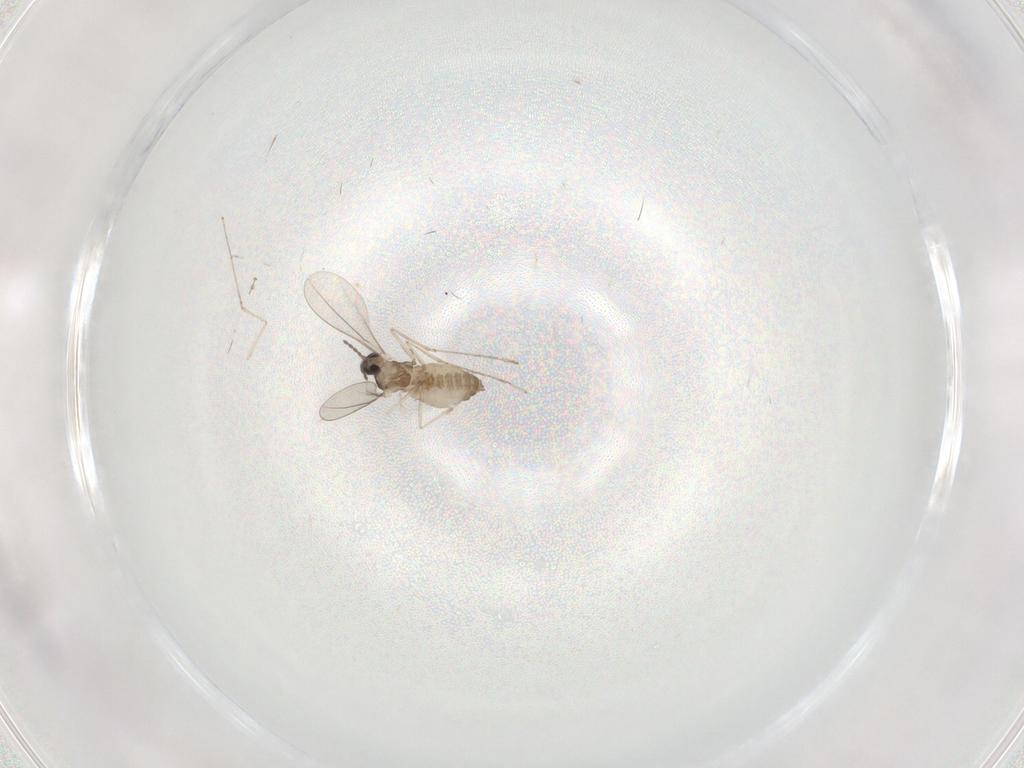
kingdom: Animalia
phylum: Arthropoda
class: Insecta
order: Diptera
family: Cecidomyiidae
